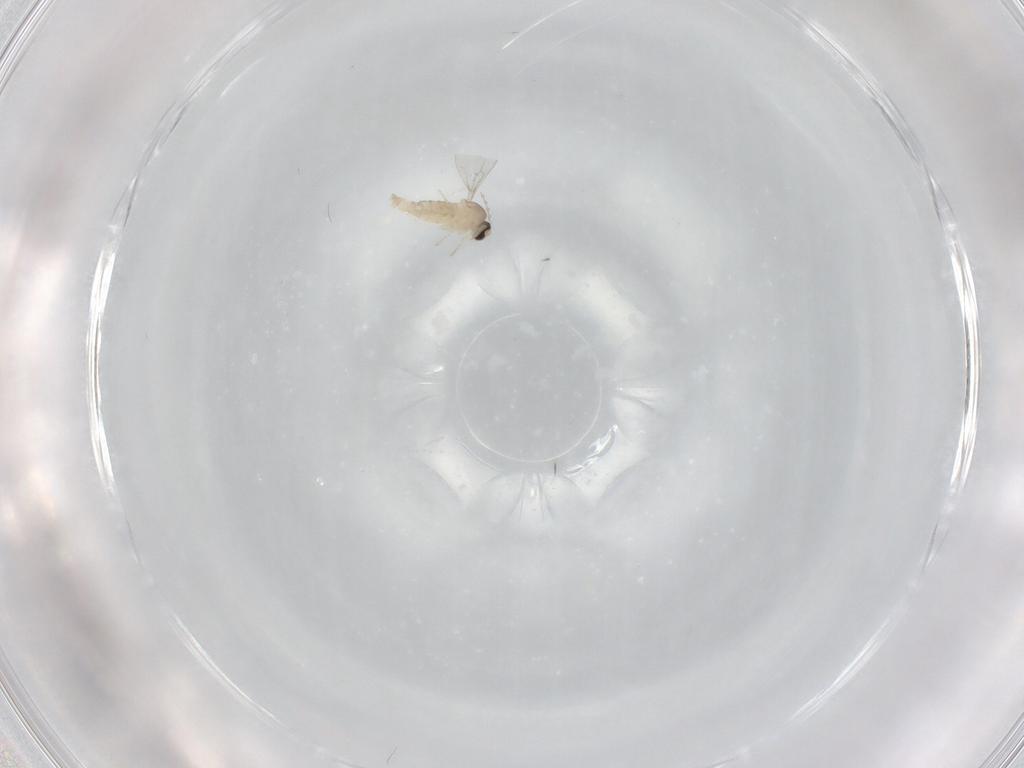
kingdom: Animalia
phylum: Arthropoda
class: Insecta
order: Diptera
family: Cecidomyiidae
